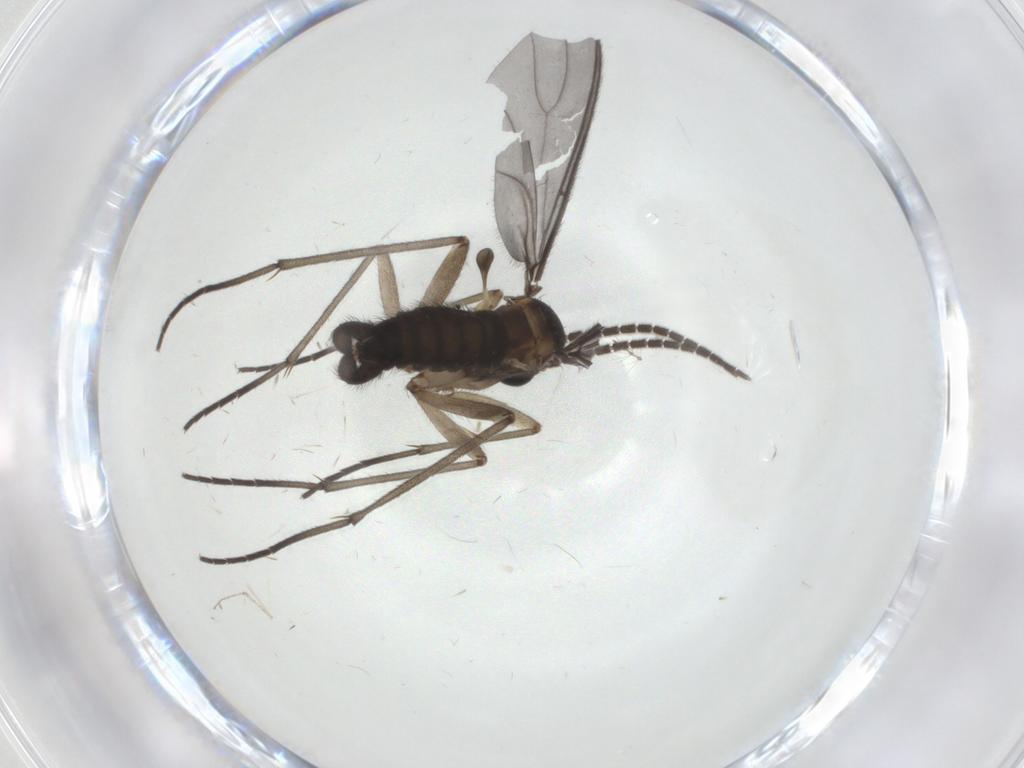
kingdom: Animalia
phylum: Arthropoda
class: Insecta
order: Diptera
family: Sciaridae
